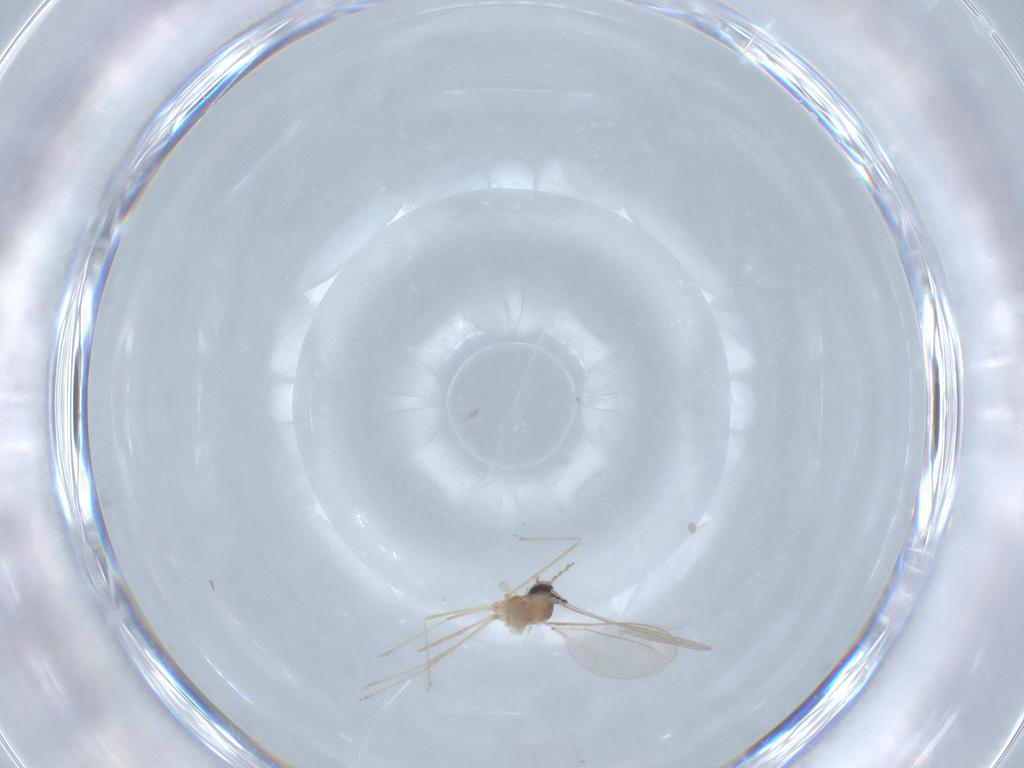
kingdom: Animalia
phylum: Arthropoda
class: Insecta
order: Diptera
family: Cecidomyiidae
